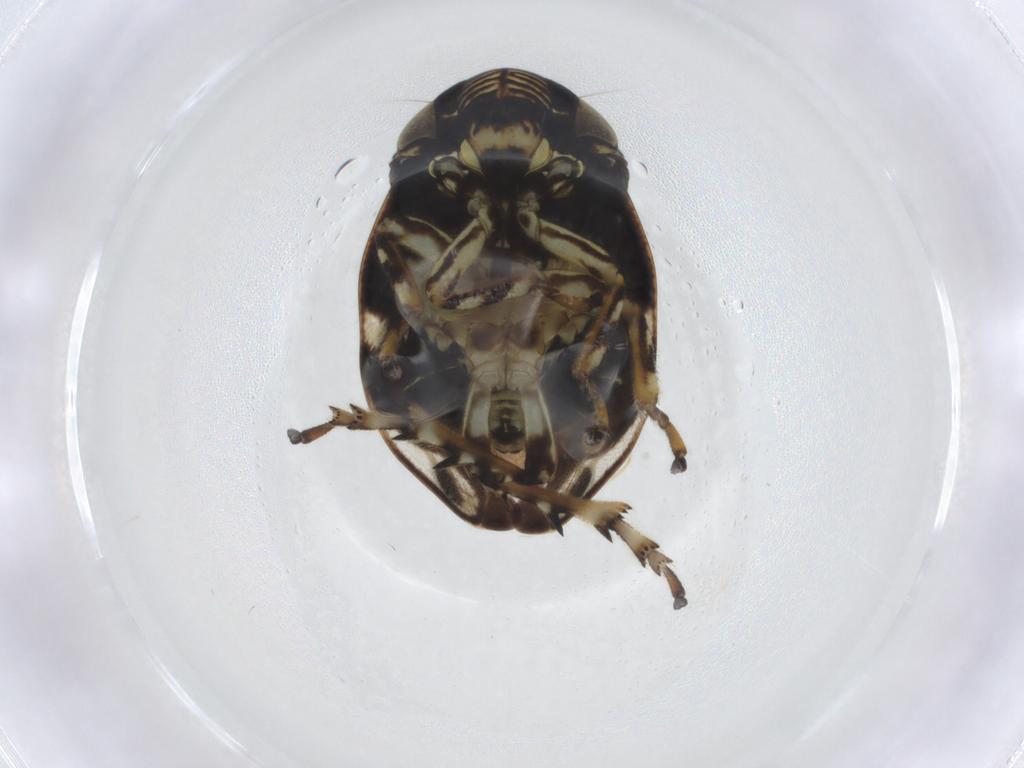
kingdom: Animalia
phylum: Arthropoda
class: Insecta
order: Hemiptera
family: Clastopteridae
